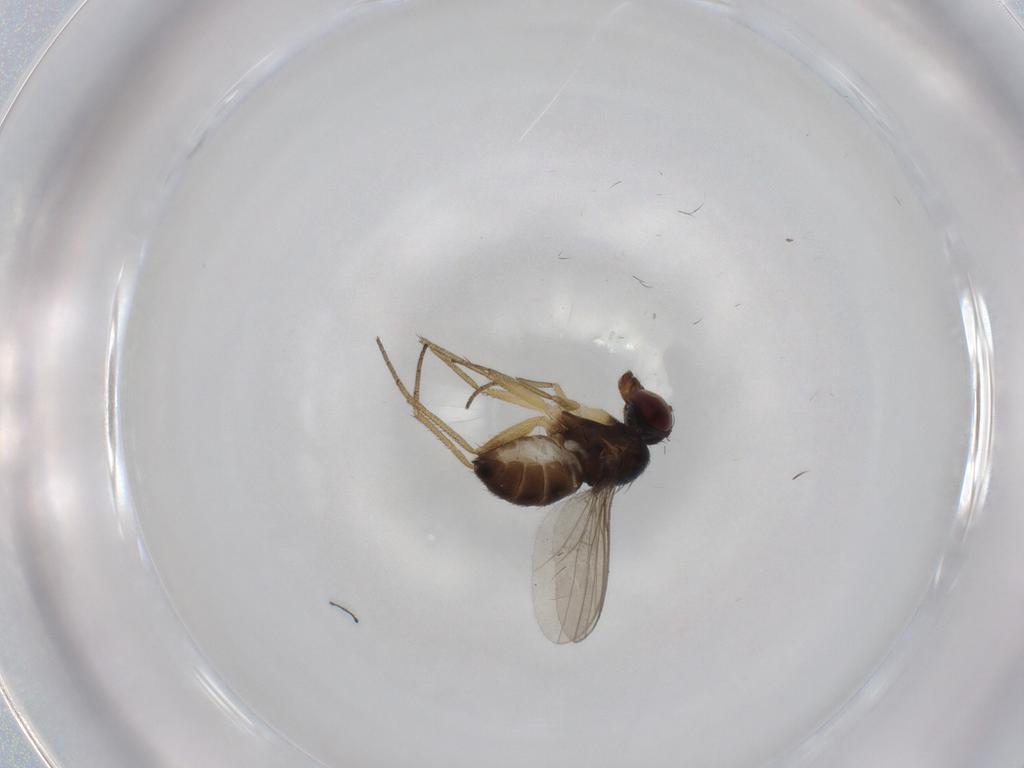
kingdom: Animalia
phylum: Arthropoda
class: Insecta
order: Diptera
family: Dolichopodidae
